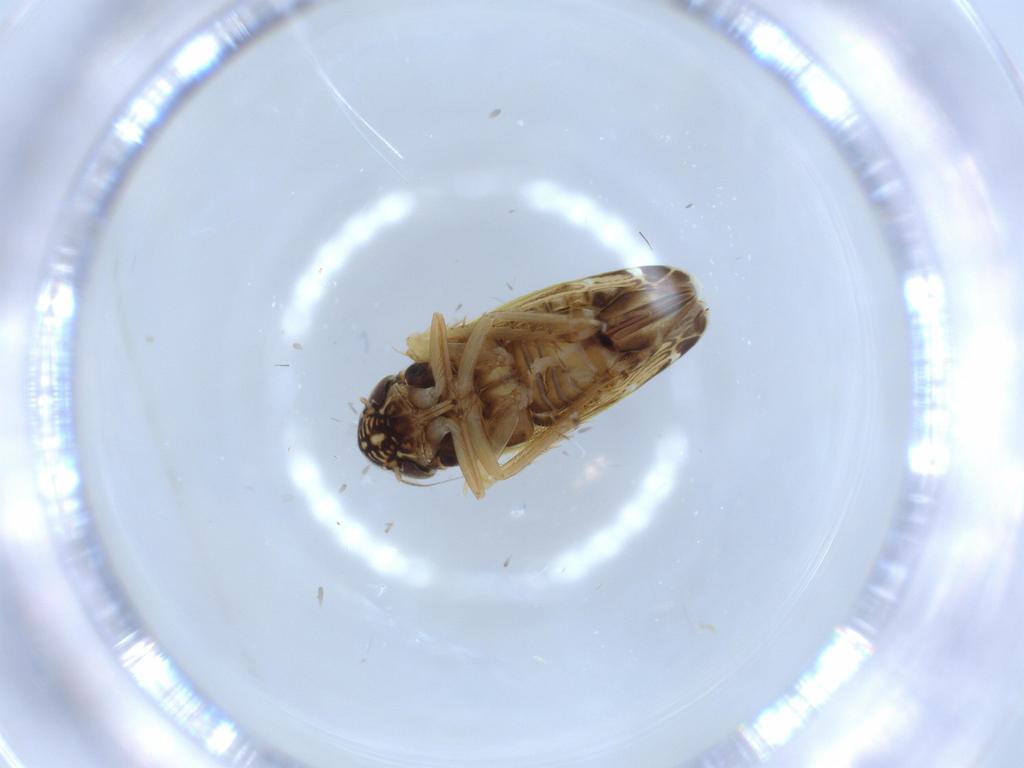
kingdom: Animalia
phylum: Arthropoda
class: Insecta
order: Hemiptera
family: Cicadellidae
